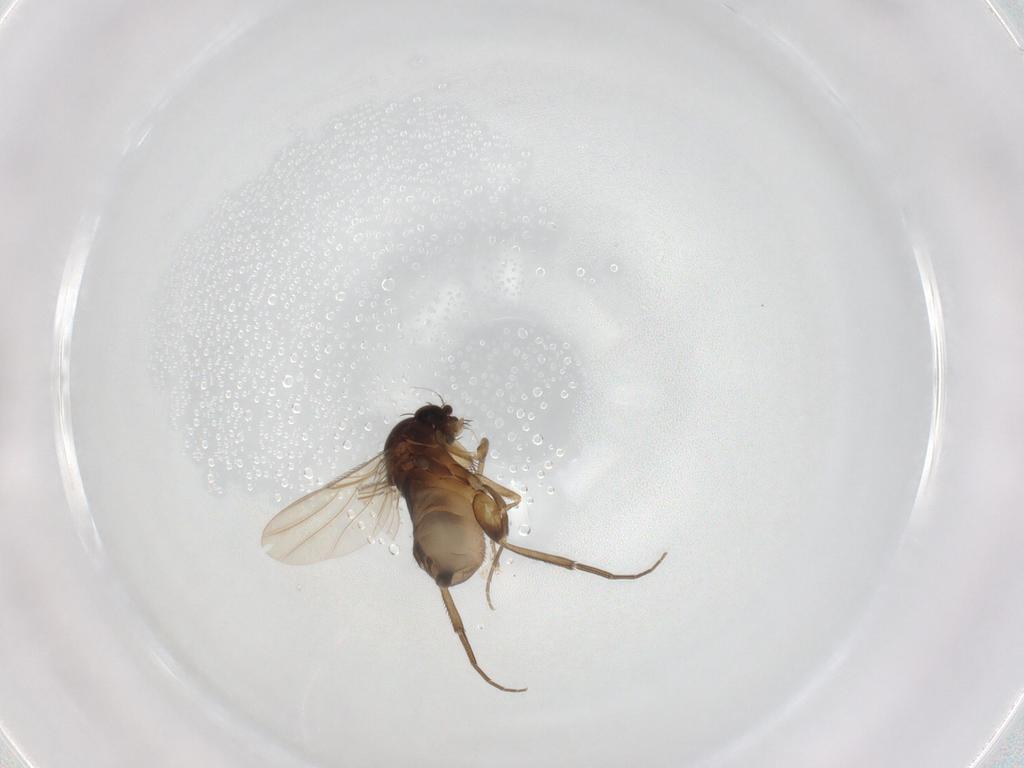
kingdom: Animalia
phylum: Arthropoda
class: Insecta
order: Diptera
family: Phoridae
